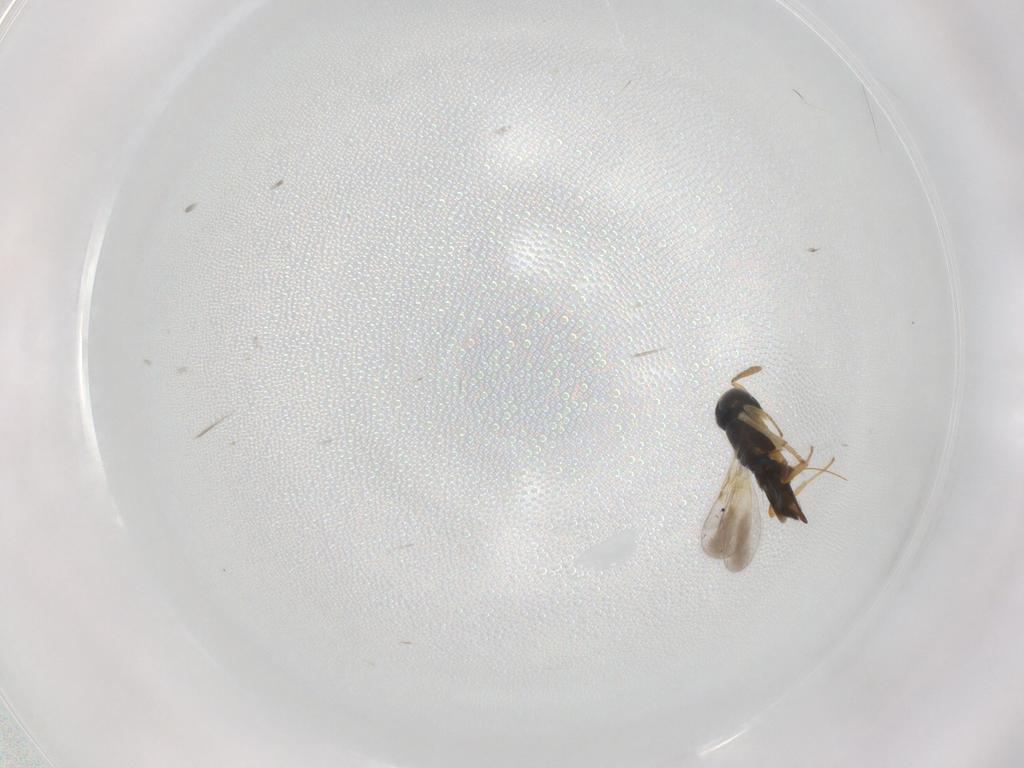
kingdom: Animalia
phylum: Arthropoda
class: Insecta
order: Hymenoptera
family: Encyrtidae
